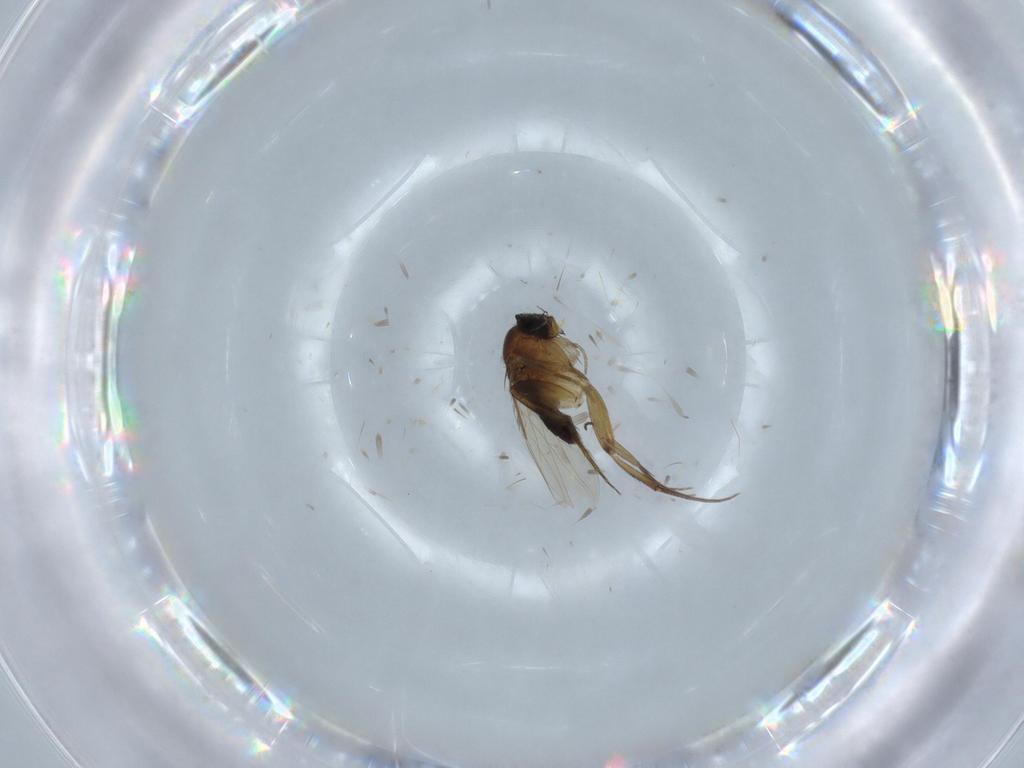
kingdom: Animalia
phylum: Arthropoda
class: Insecta
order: Diptera
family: Phoridae
